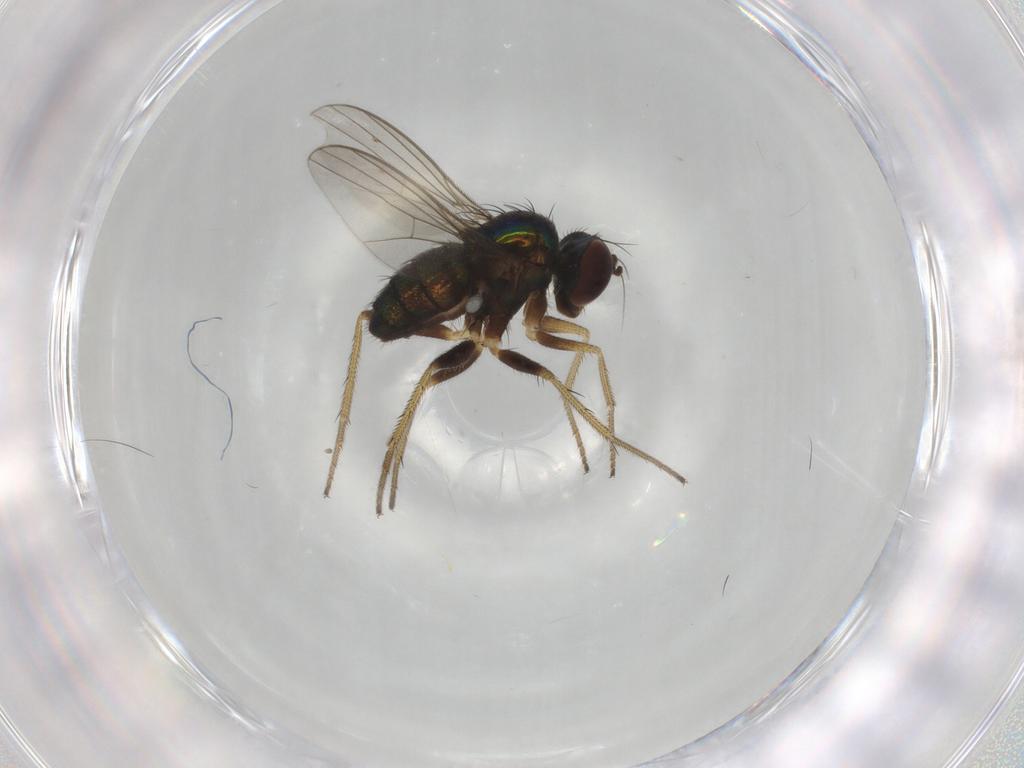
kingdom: Animalia
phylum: Arthropoda
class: Insecta
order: Diptera
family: Dolichopodidae
